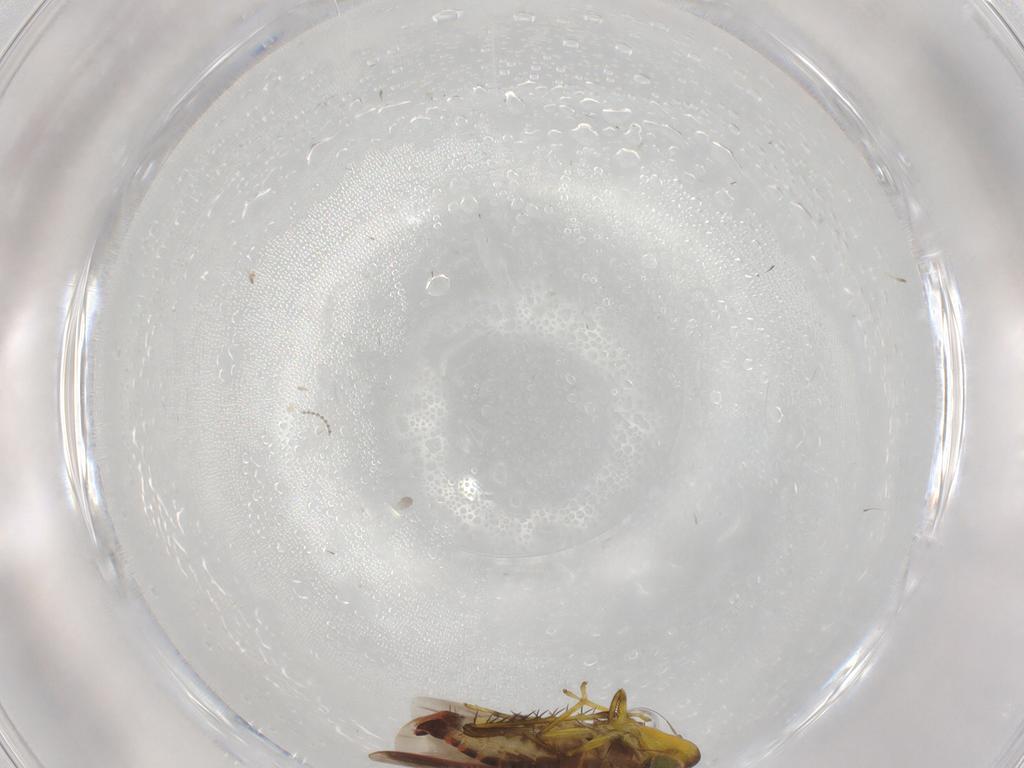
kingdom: Animalia
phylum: Arthropoda
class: Insecta
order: Hemiptera
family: Cicadellidae
